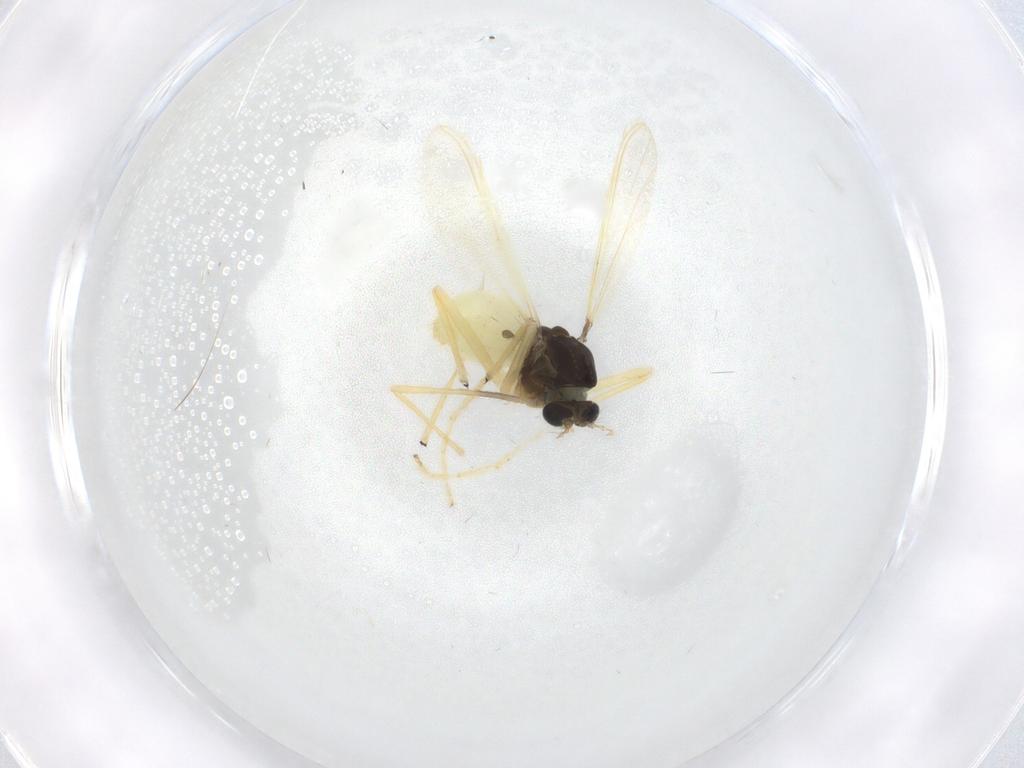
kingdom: Animalia
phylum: Arthropoda
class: Insecta
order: Diptera
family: Chironomidae
